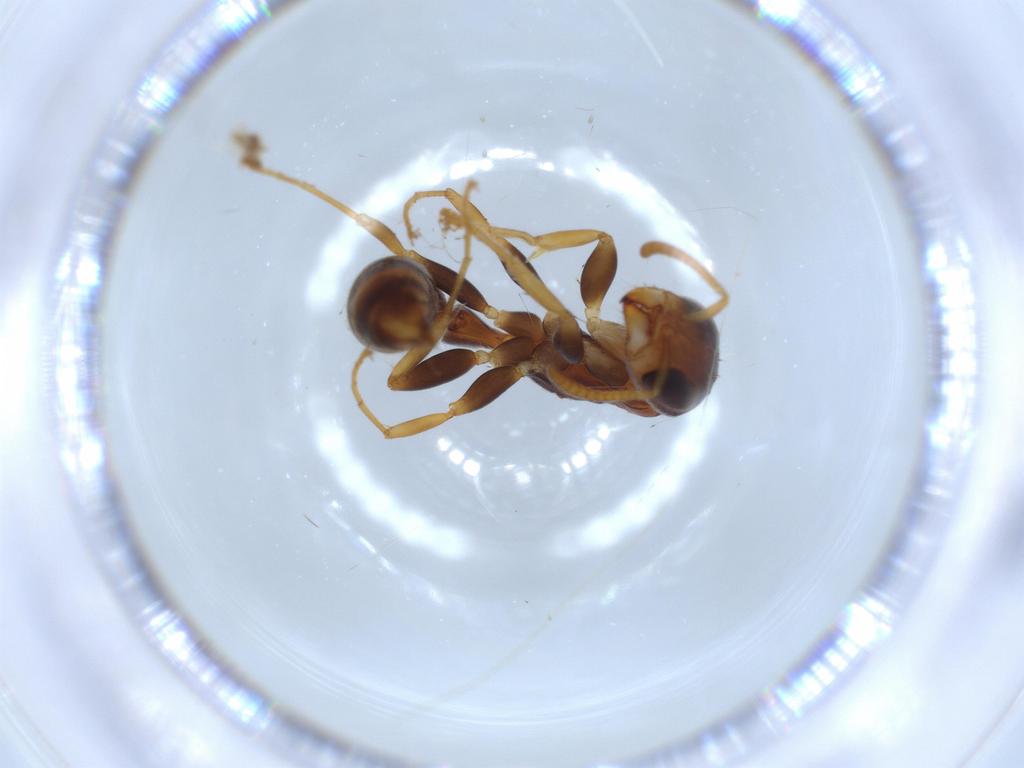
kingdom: Animalia
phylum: Arthropoda
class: Insecta
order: Hymenoptera
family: Formicidae
